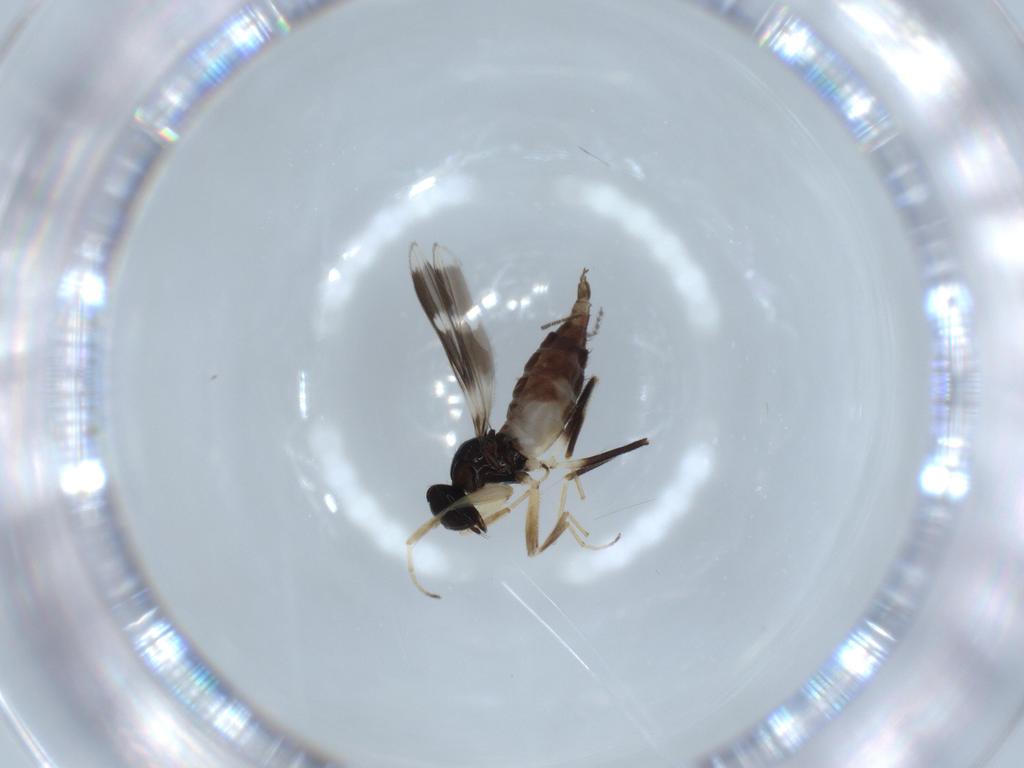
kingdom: Animalia
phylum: Arthropoda
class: Insecta
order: Diptera
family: Hybotidae
